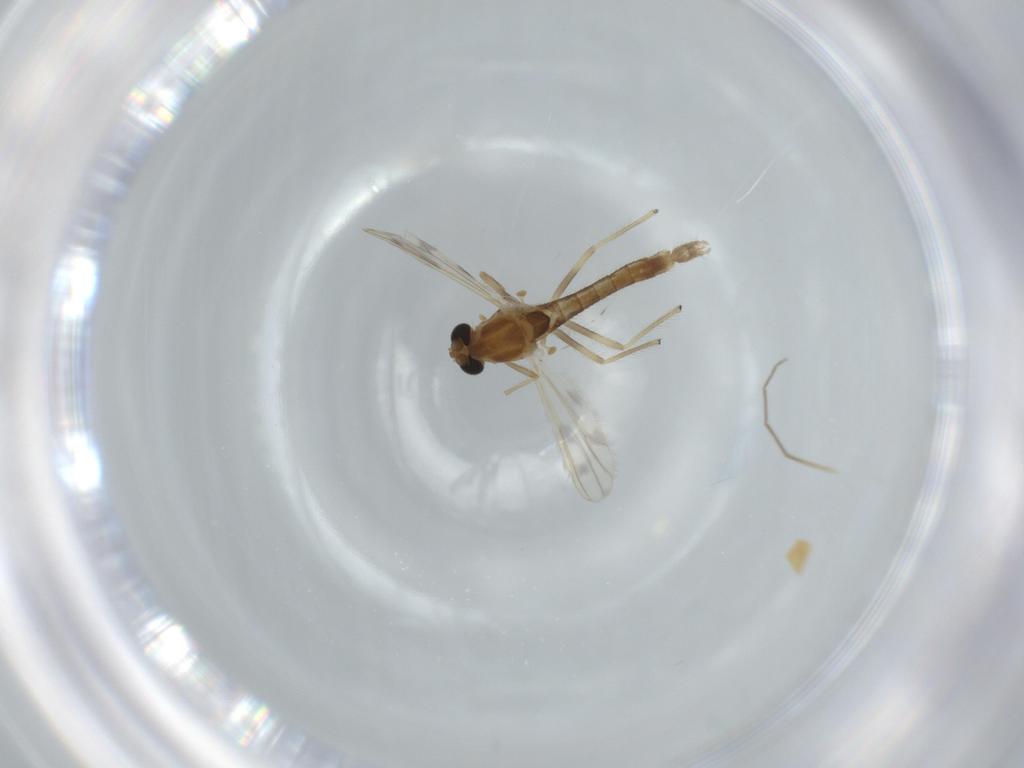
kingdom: Animalia
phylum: Arthropoda
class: Insecta
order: Diptera
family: Chironomidae
